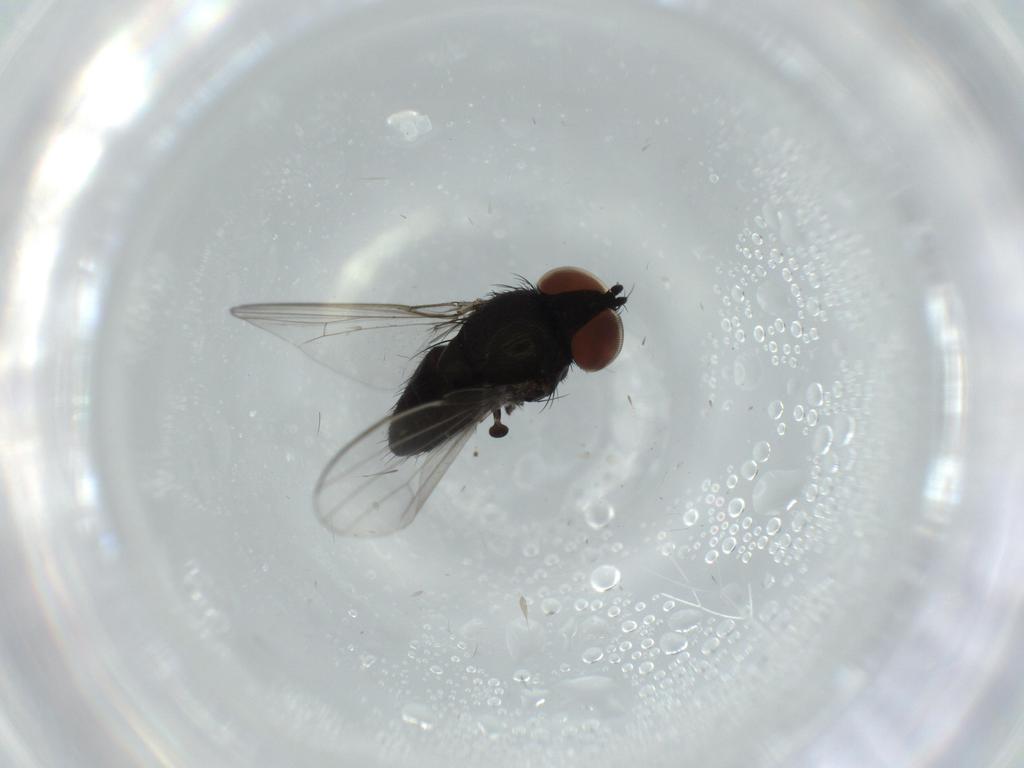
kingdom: Animalia
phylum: Arthropoda
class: Insecta
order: Diptera
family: Milichiidae
